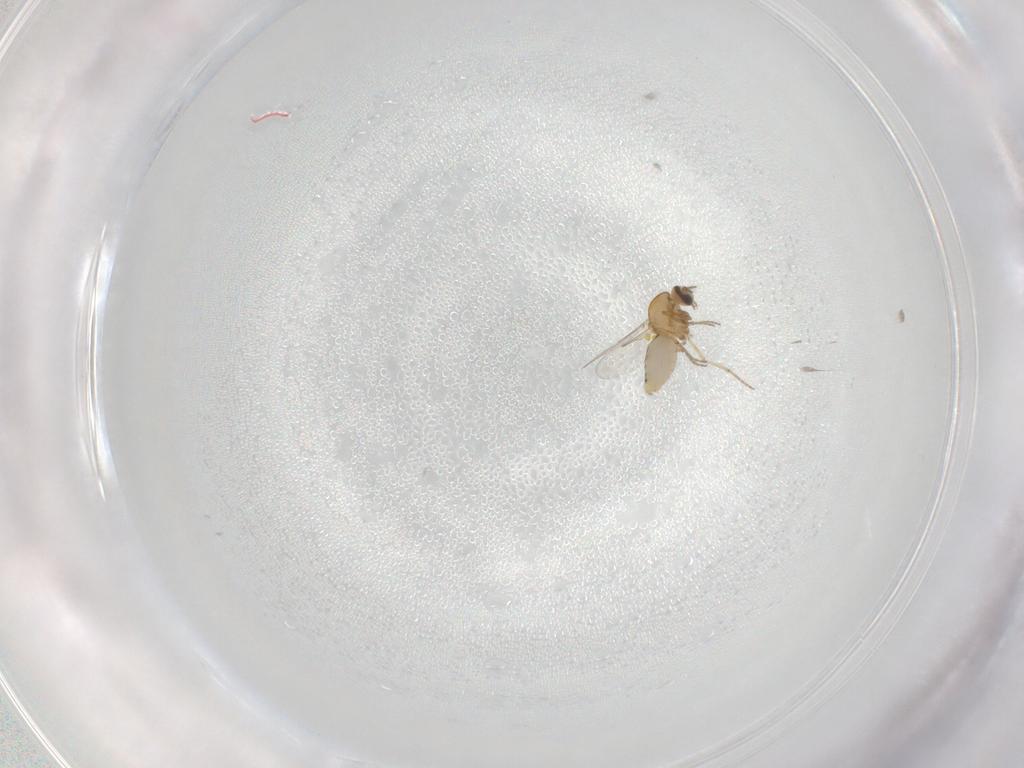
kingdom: Animalia
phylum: Arthropoda
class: Insecta
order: Diptera
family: Ceratopogonidae
